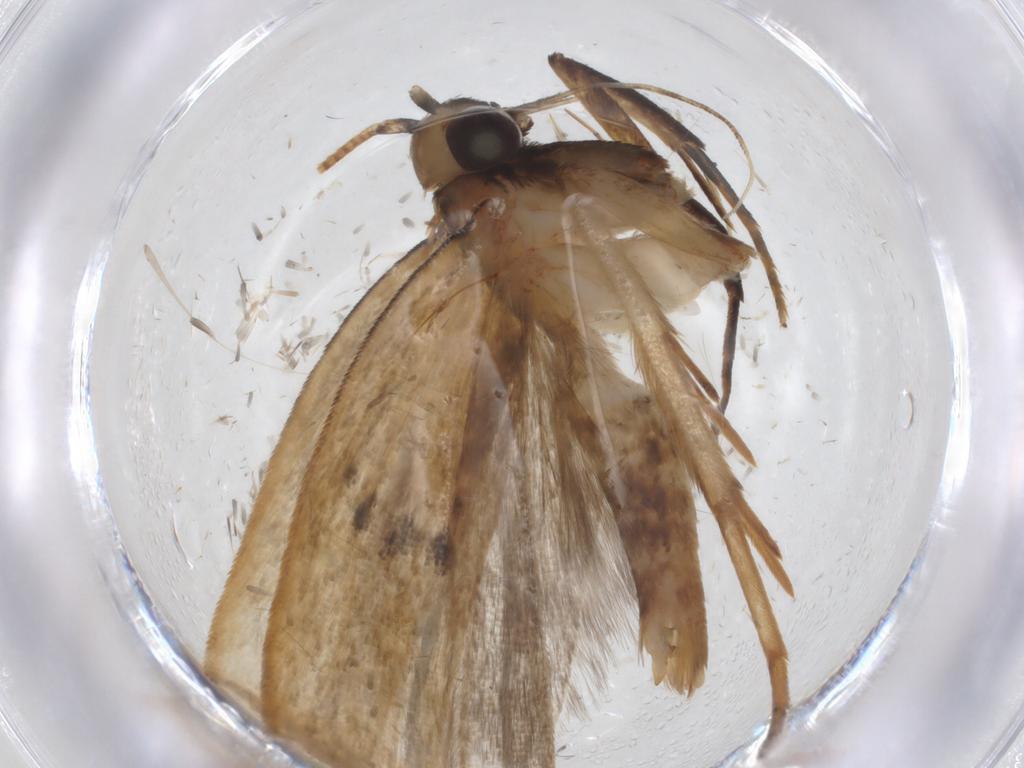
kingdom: Animalia
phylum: Arthropoda
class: Insecta
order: Lepidoptera
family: Gelechiidae
